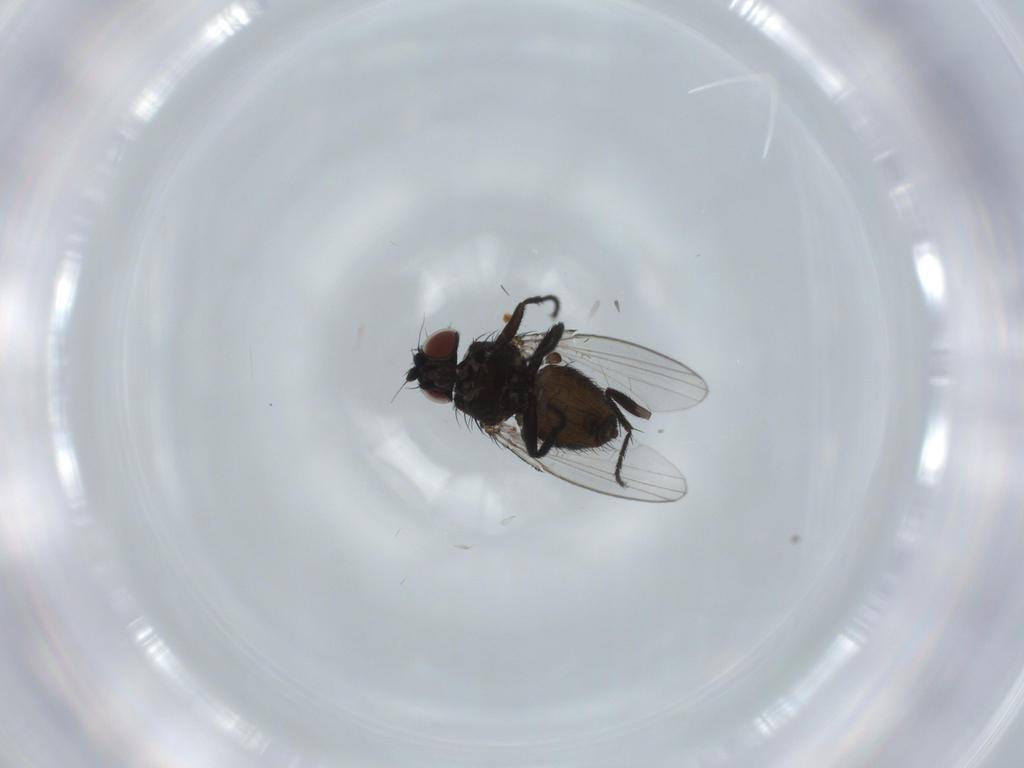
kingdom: Animalia
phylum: Arthropoda
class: Insecta
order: Diptera
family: Milichiidae
